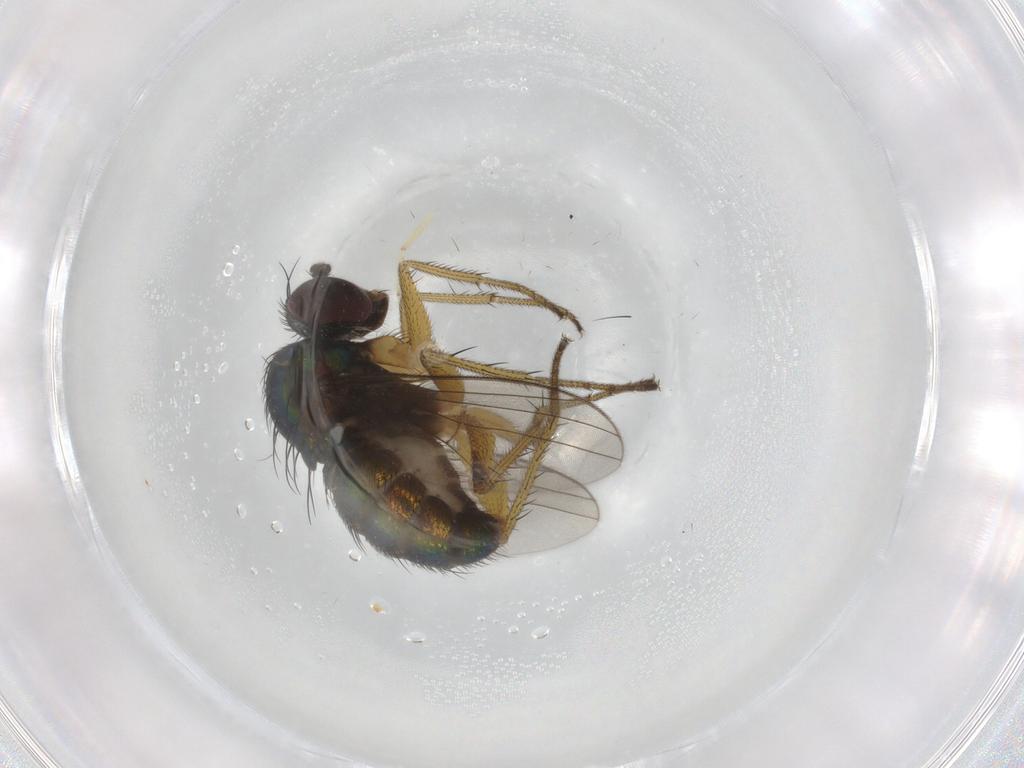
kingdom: Animalia
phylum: Arthropoda
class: Insecta
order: Diptera
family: Dolichopodidae
